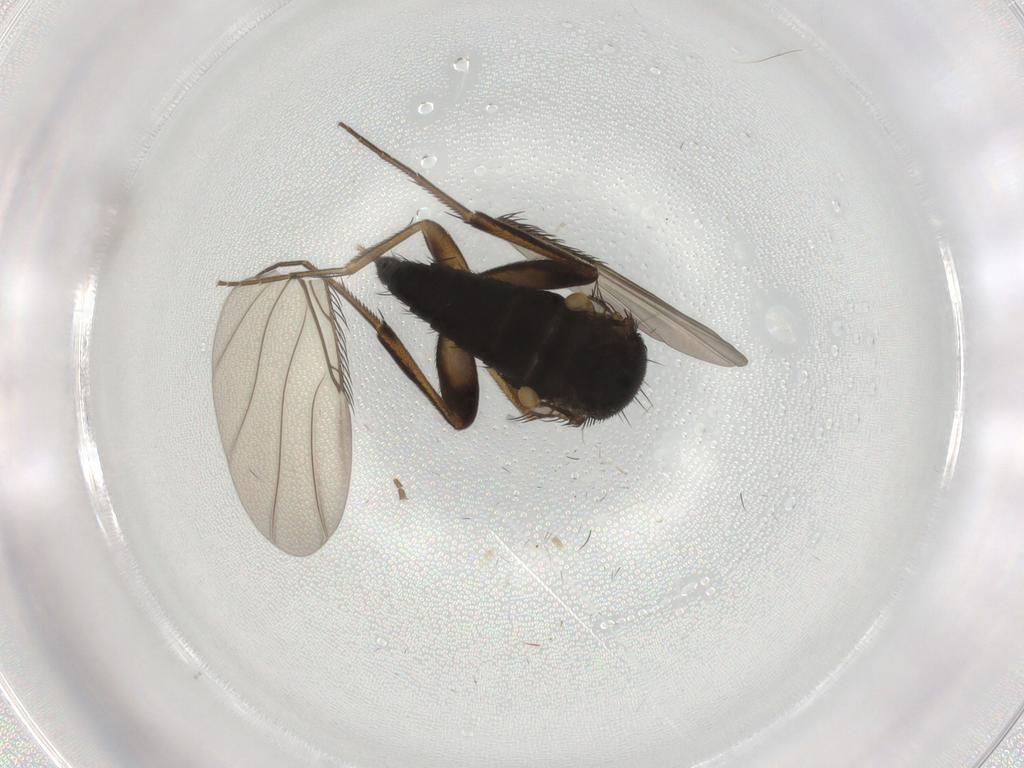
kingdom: Animalia
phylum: Arthropoda
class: Insecta
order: Diptera
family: Phoridae
